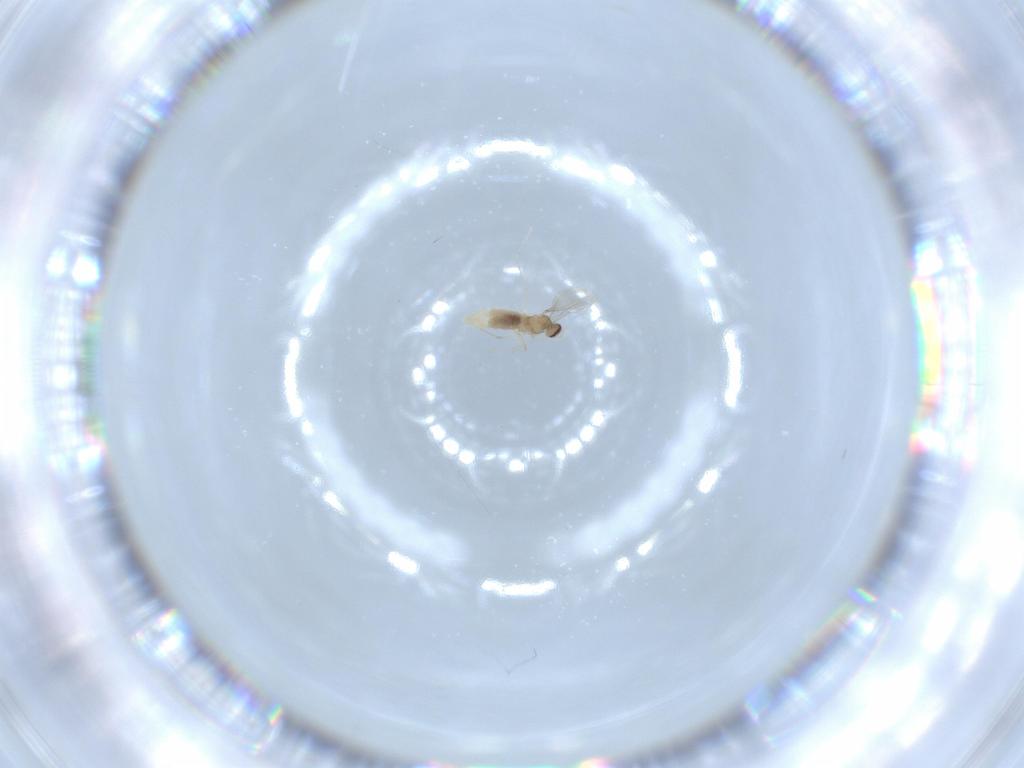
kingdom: Animalia
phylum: Arthropoda
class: Insecta
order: Diptera
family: Cecidomyiidae
